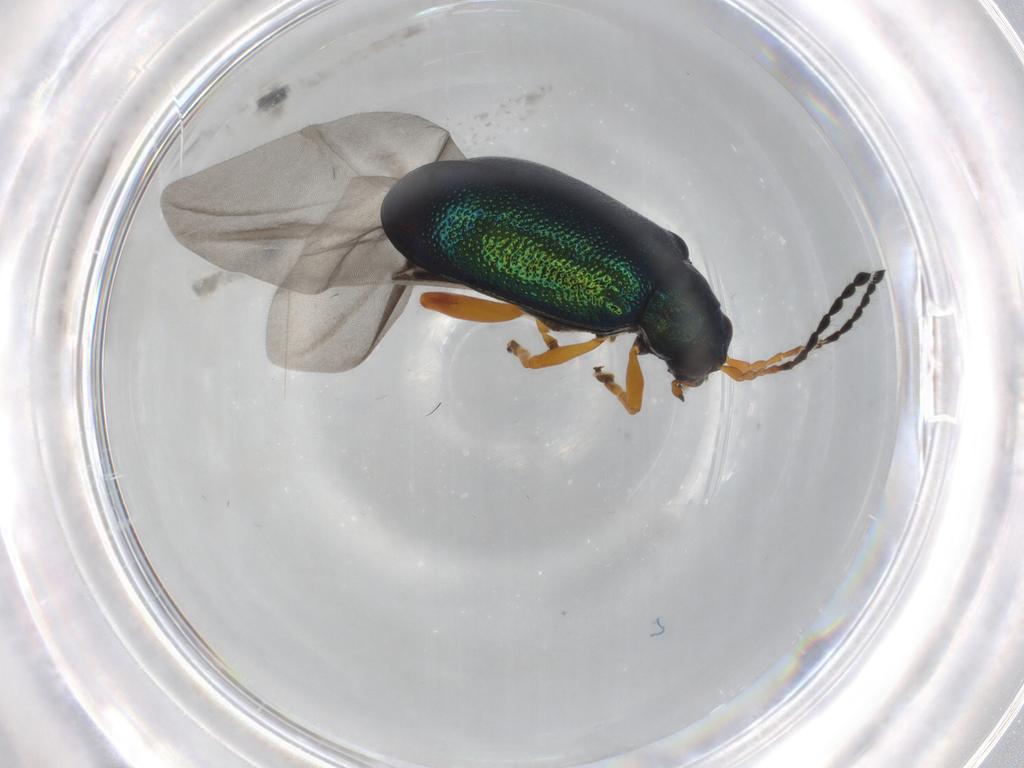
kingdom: Animalia
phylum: Arthropoda
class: Insecta
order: Coleoptera
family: Chrysomelidae
